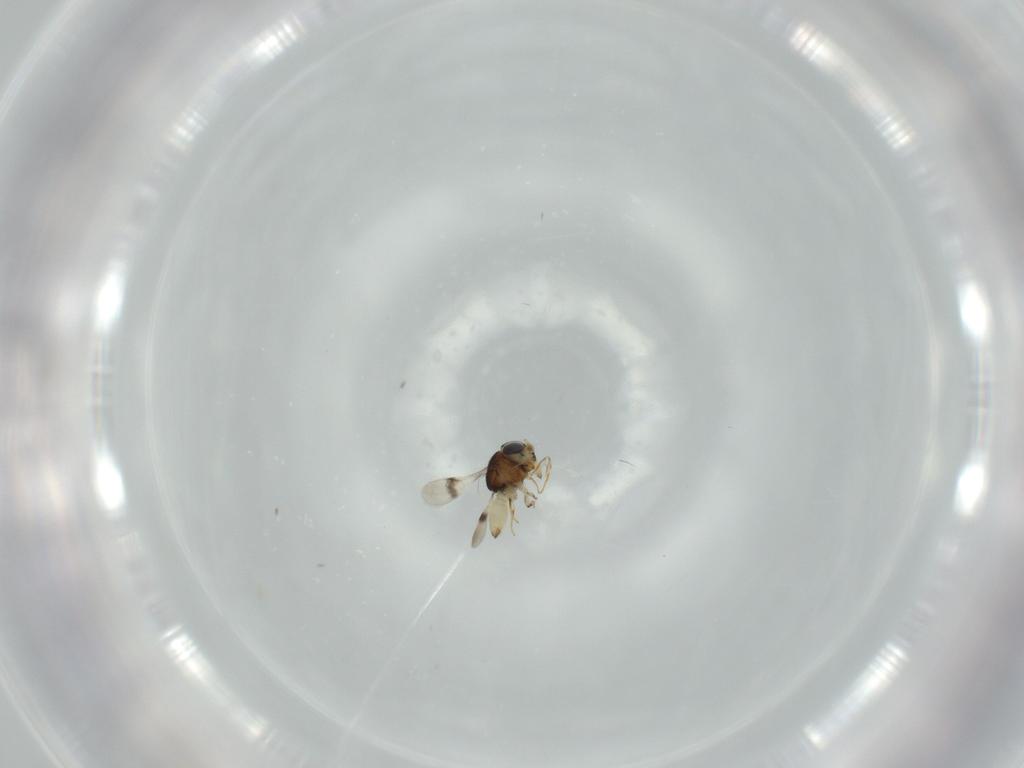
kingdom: Animalia
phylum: Arthropoda
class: Insecta
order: Hymenoptera
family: Scelionidae
